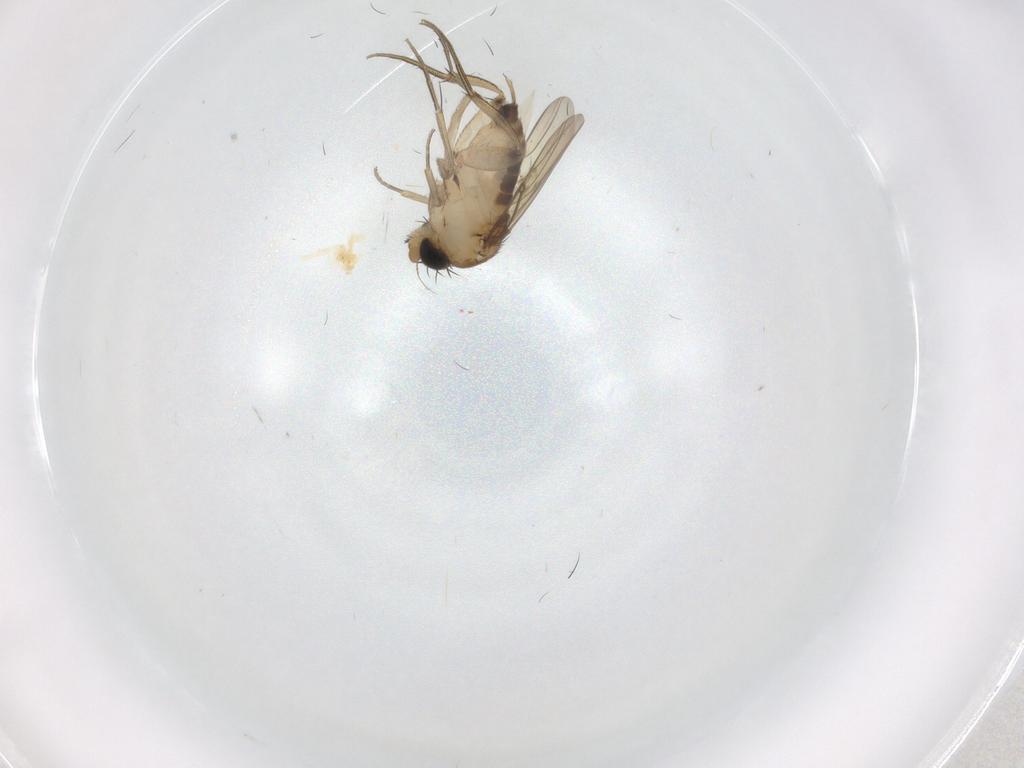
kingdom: Animalia
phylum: Arthropoda
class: Insecta
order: Diptera
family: Phoridae
